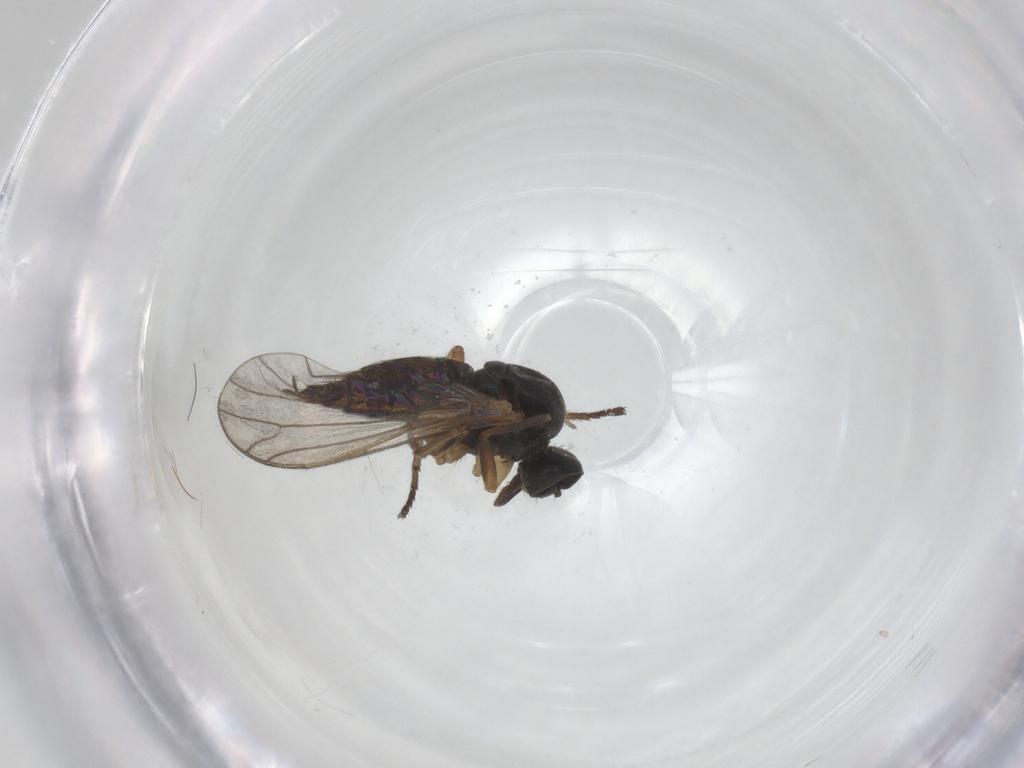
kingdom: Animalia
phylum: Arthropoda
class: Insecta
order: Diptera
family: Empididae
